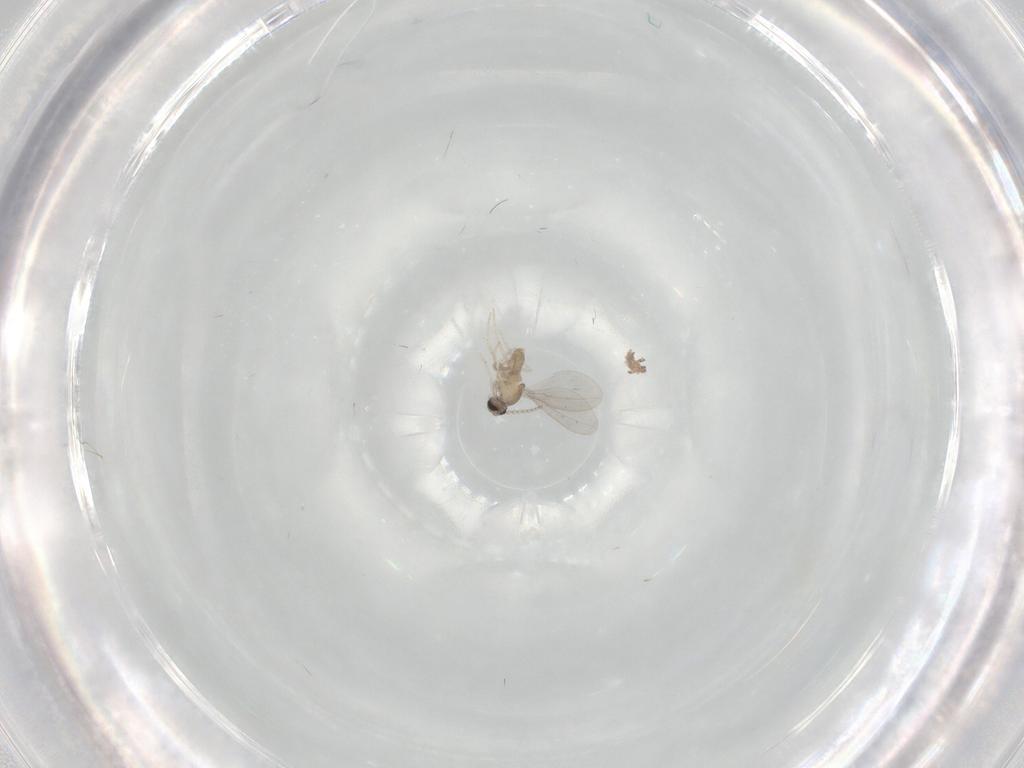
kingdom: Animalia
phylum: Arthropoda
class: Insecta
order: Diptera
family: Cecidomyiidae
